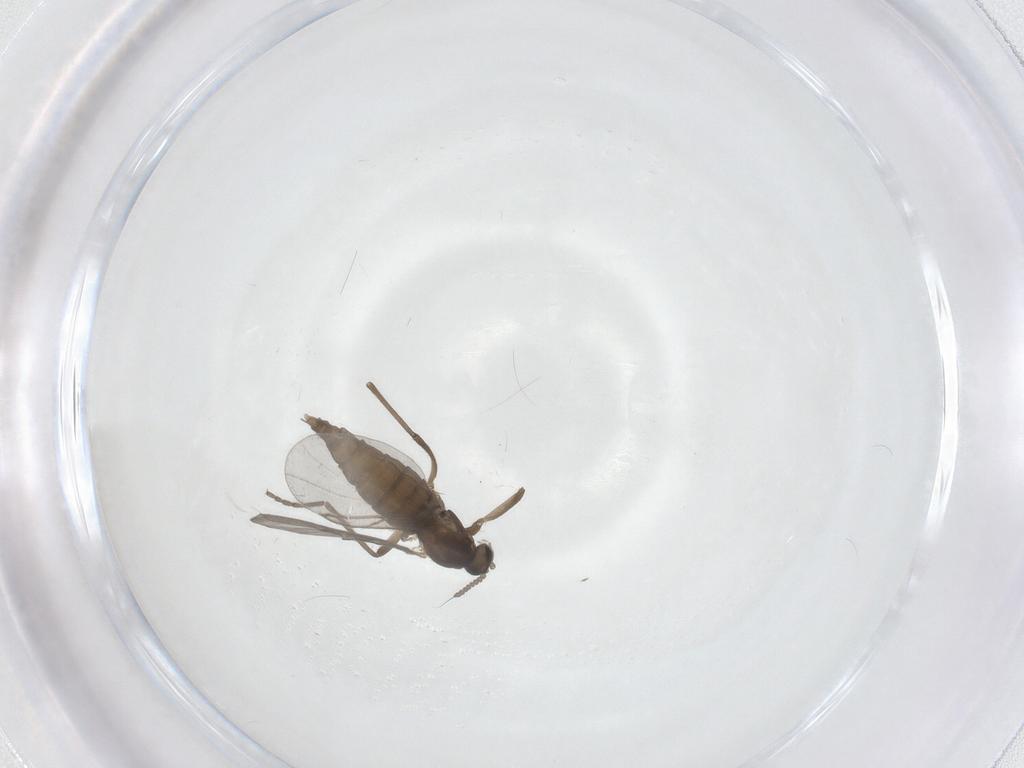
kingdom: Animalia
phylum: Arthropoda
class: Insecta
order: Diptera
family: Cecidomyiidae
